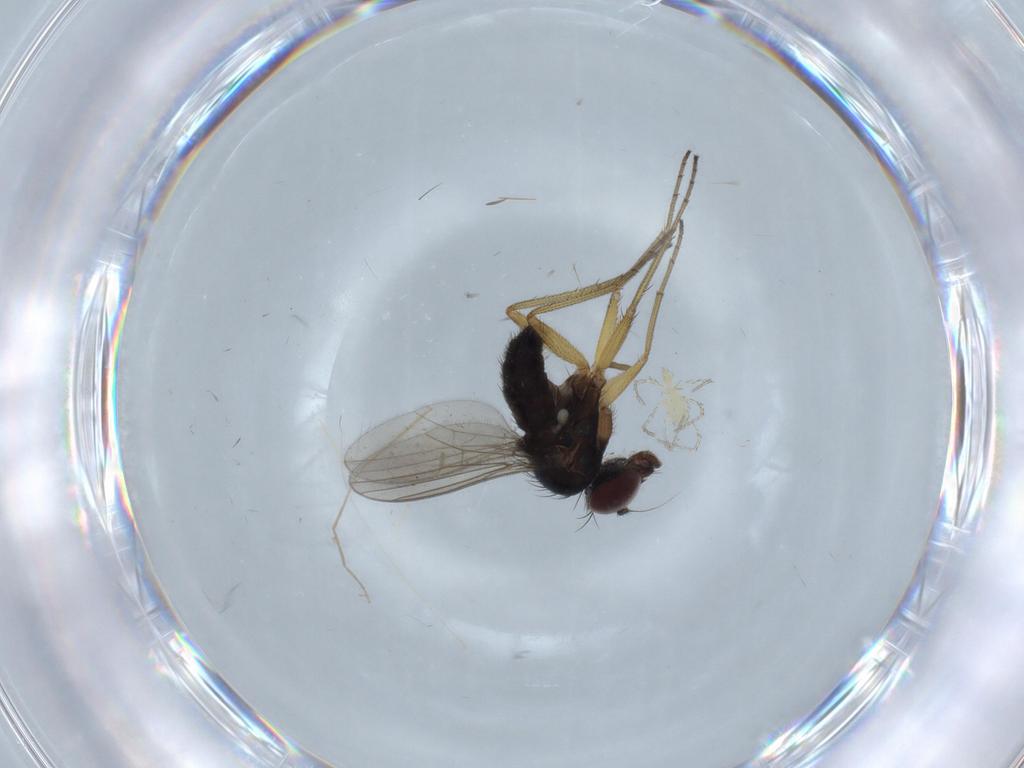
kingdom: Animalia
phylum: Arthropoda
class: Insecta
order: Diptera
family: Dolichopodidae
